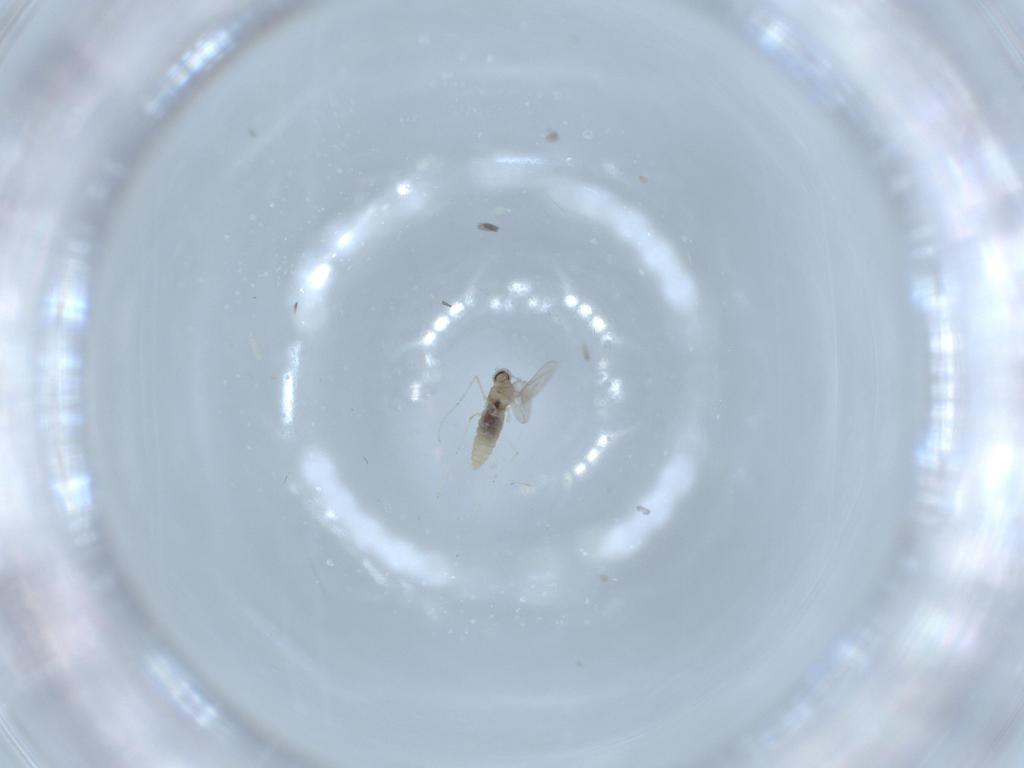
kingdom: Animalia
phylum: Arthropoda
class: Insecta
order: Diptera
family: Cecidomyiidae
